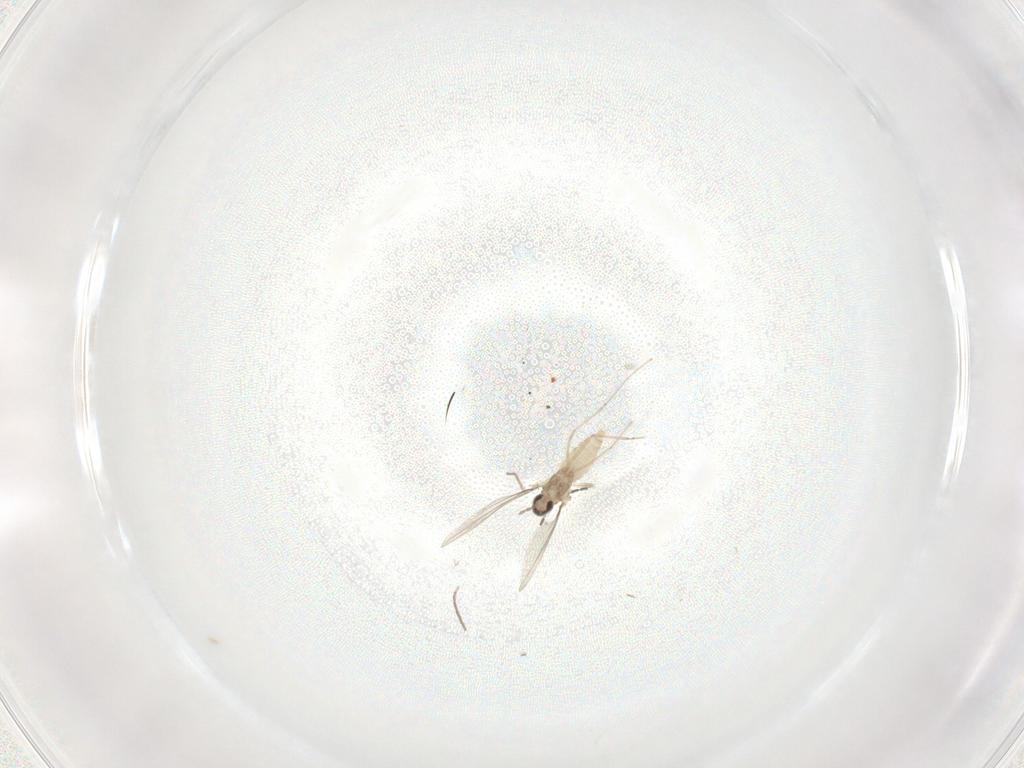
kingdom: Animalia
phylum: Arthropoda
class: Insecta
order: Diptera
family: Cecidomyiidae
